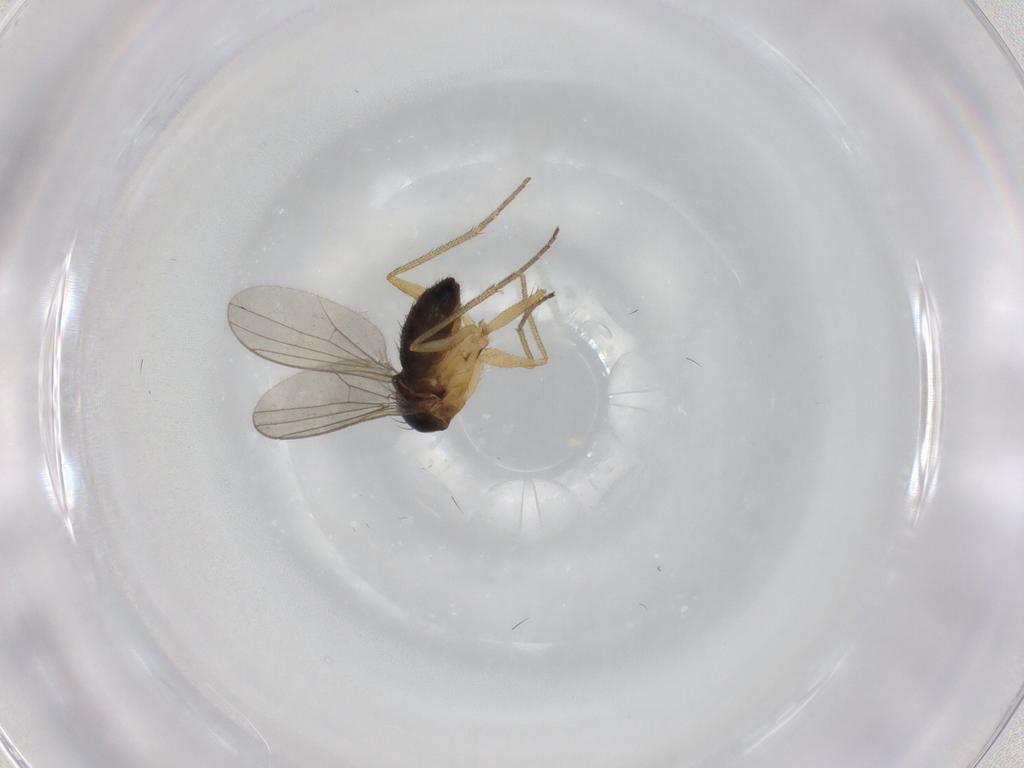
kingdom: Animalia
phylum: Arthropoda
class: Insecta
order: Diptera
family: Dolichopodidae
